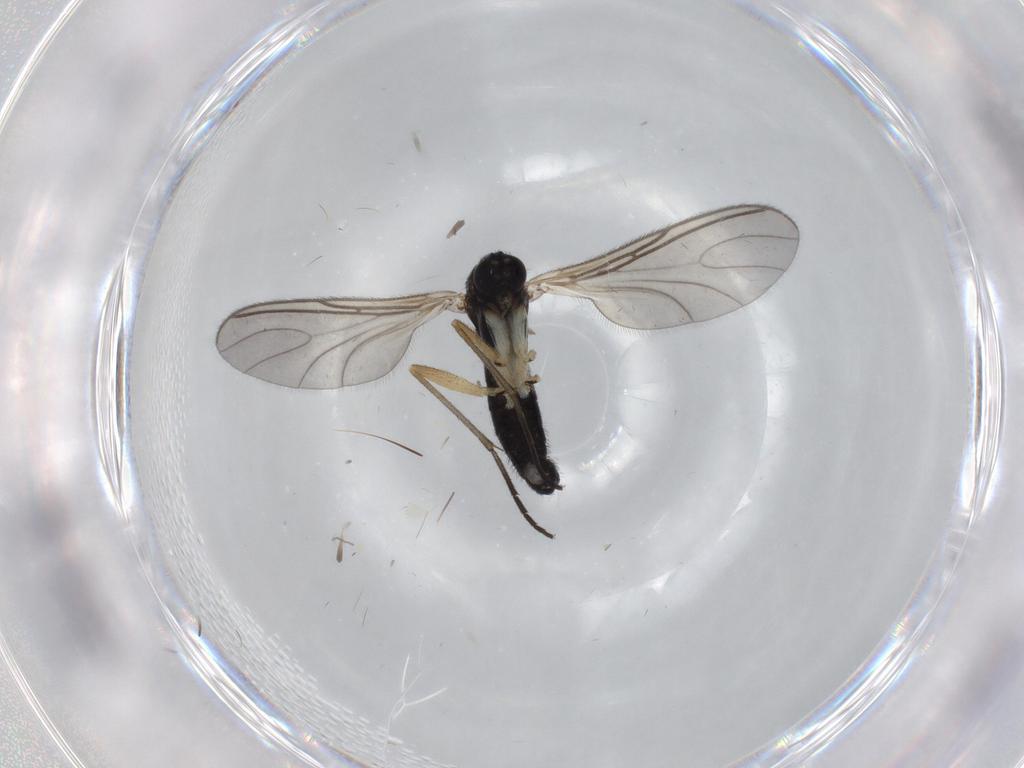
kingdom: Animalia
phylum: Arthropoda
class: Insecta
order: Diptera
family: Sciaridae
